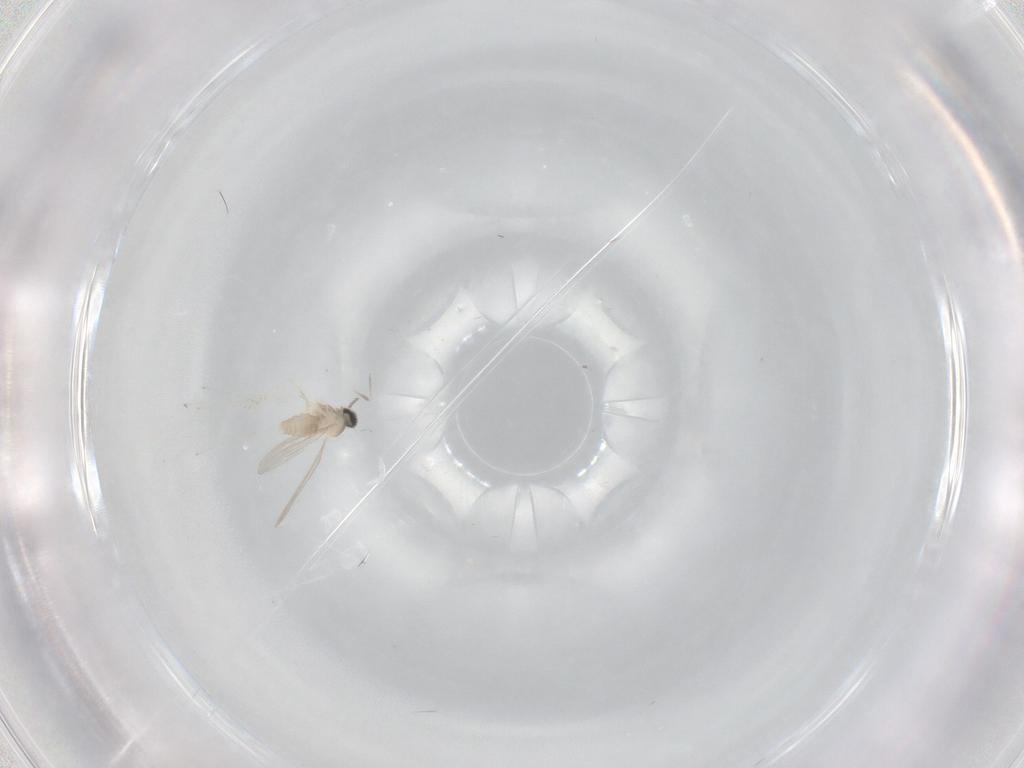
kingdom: Animalia
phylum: Arthropoda
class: Insecta
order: Diptera
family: Cecidomyiidae
